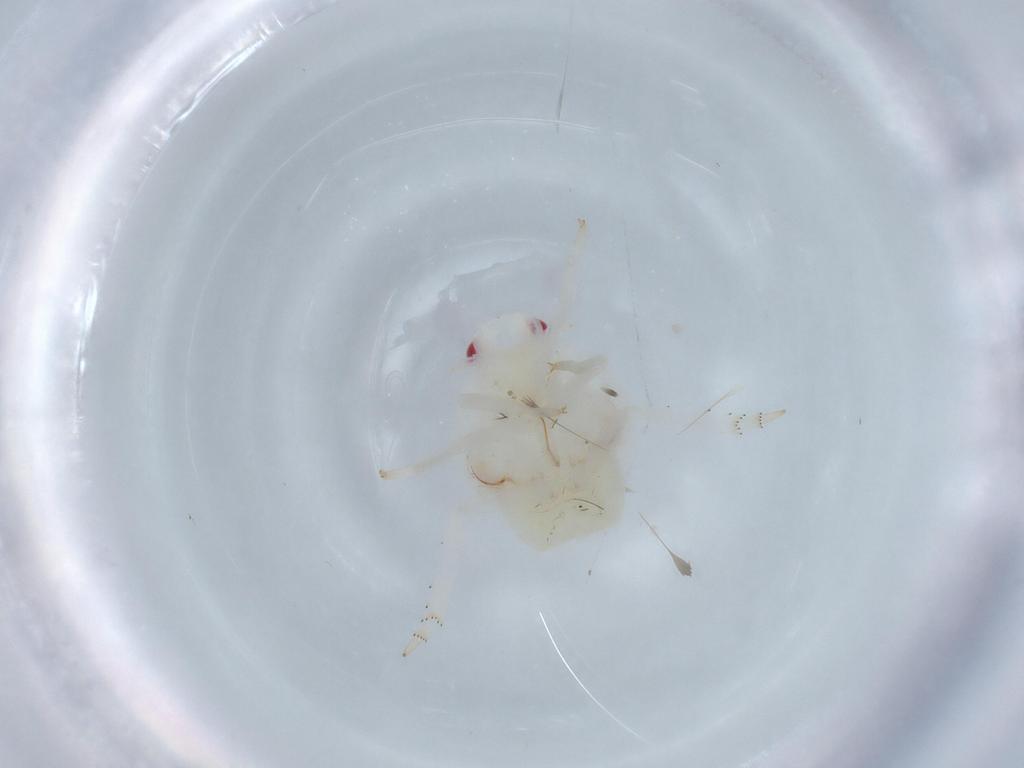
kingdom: Animalia
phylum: Arthropoda
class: Insecta
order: Hemiptera
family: Flatidae
